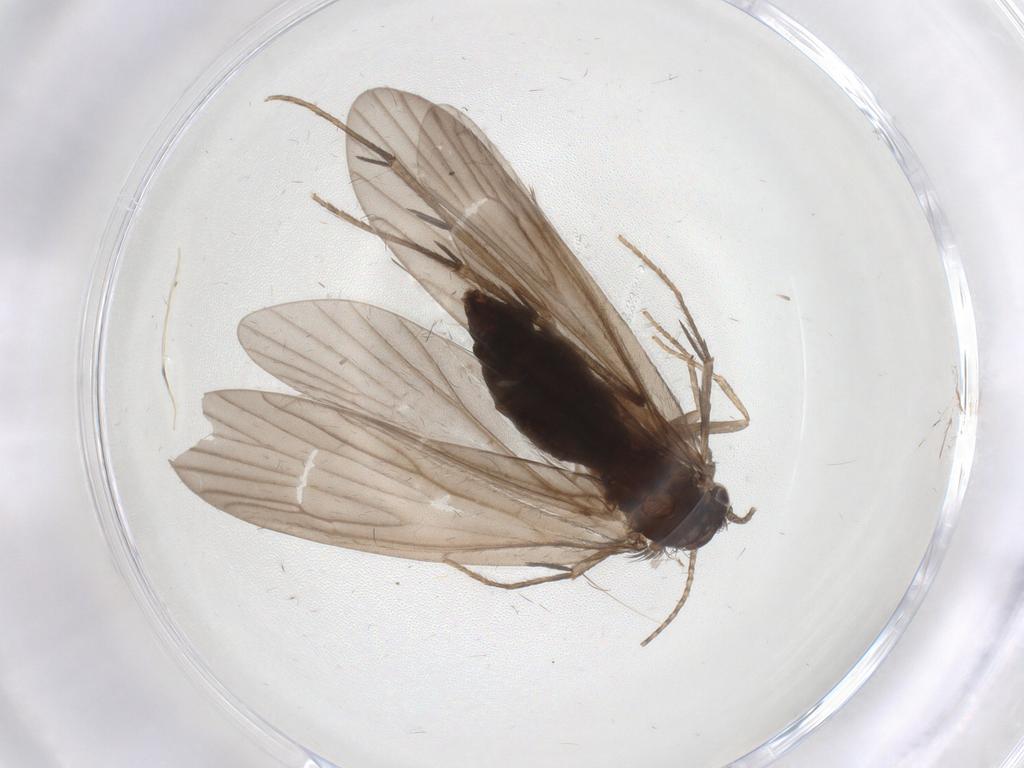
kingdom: Animalia
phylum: Arthropoda
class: Insecta
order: Trichoptera
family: Philopotamidae
